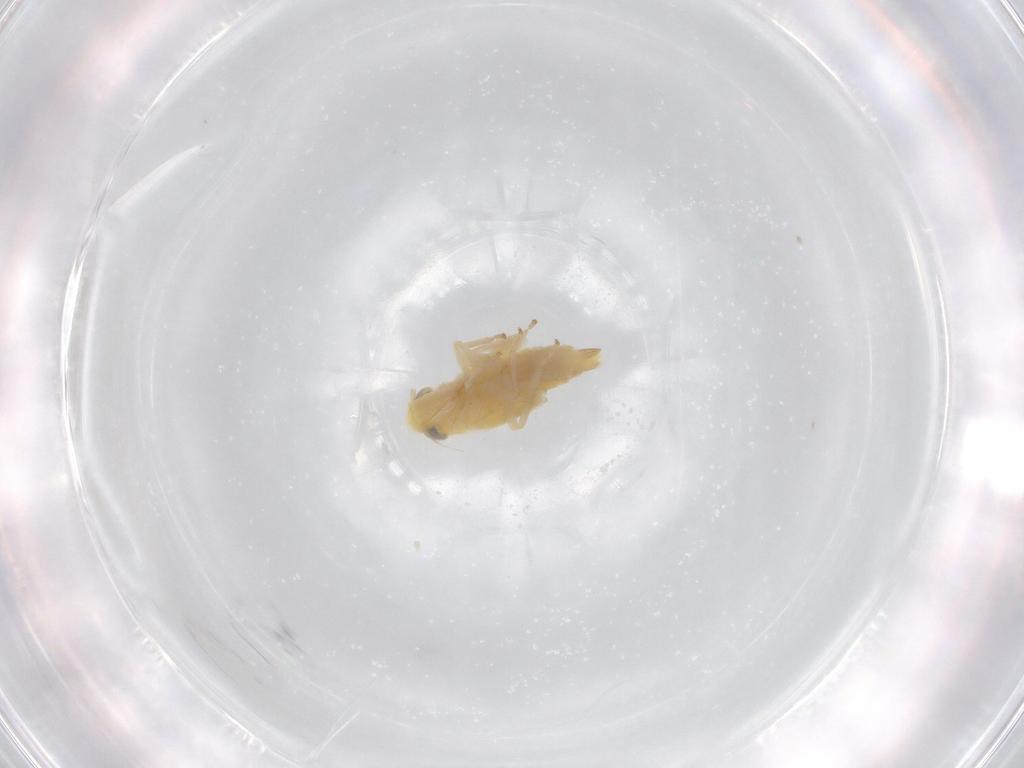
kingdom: Animalia
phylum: Arthropoda
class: Insecta
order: Hemiptera
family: Cicadellidae
